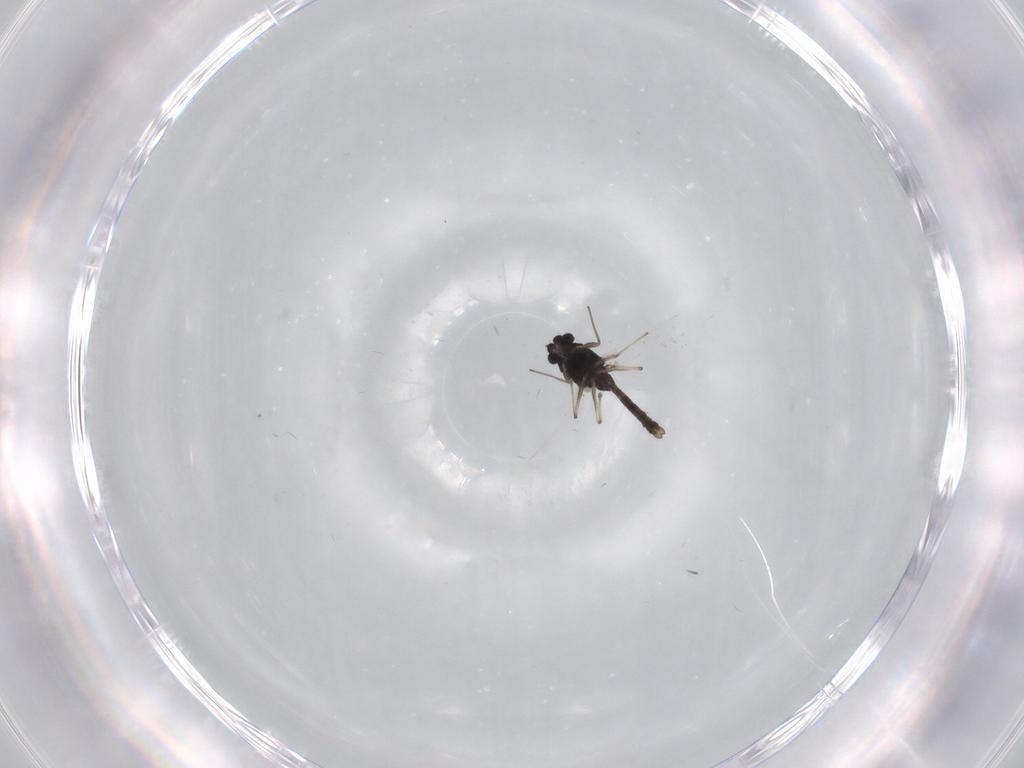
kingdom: Animalia
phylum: Arthropoda
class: Insecta
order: Diptera
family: Chironomidae
